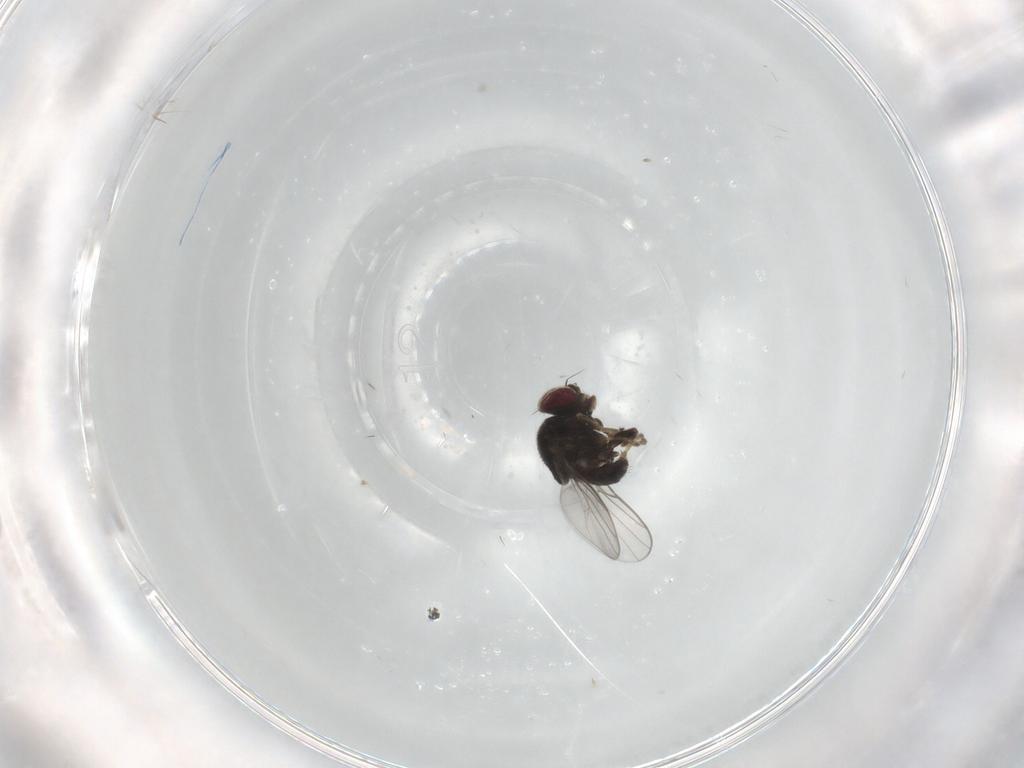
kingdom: Animalia
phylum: Arthropoda
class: Insecta
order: Diptera
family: Chloropidae
